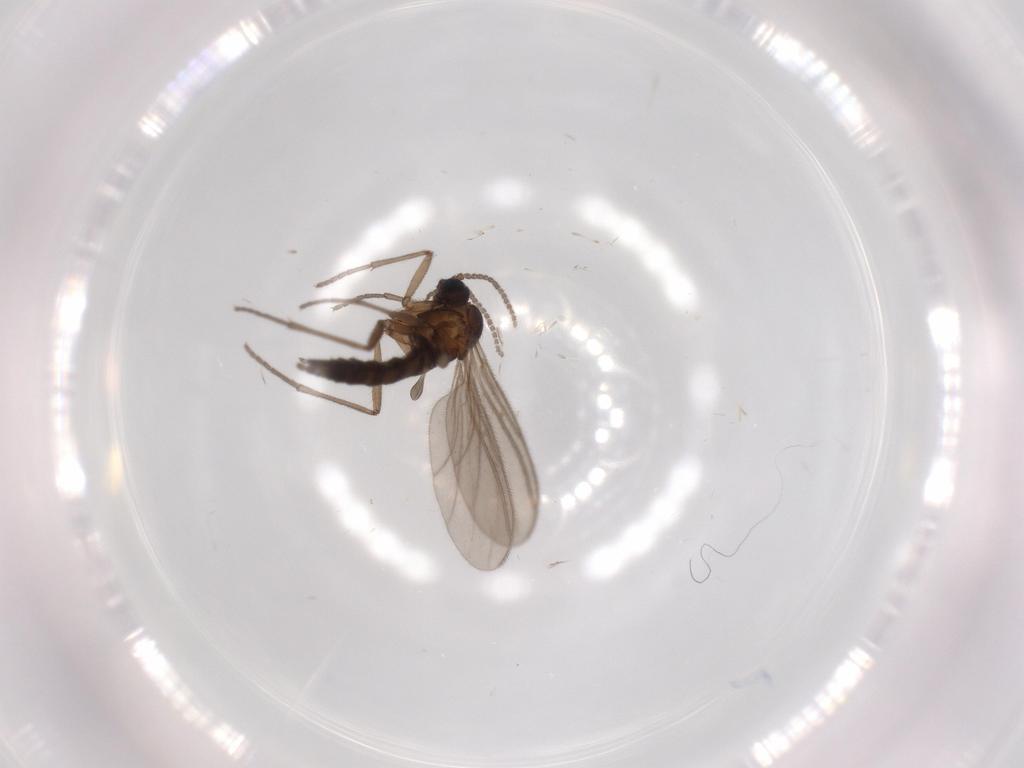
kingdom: Animalia
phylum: Arthropoda
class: Insecta
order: Diptera
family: Sciaridae
